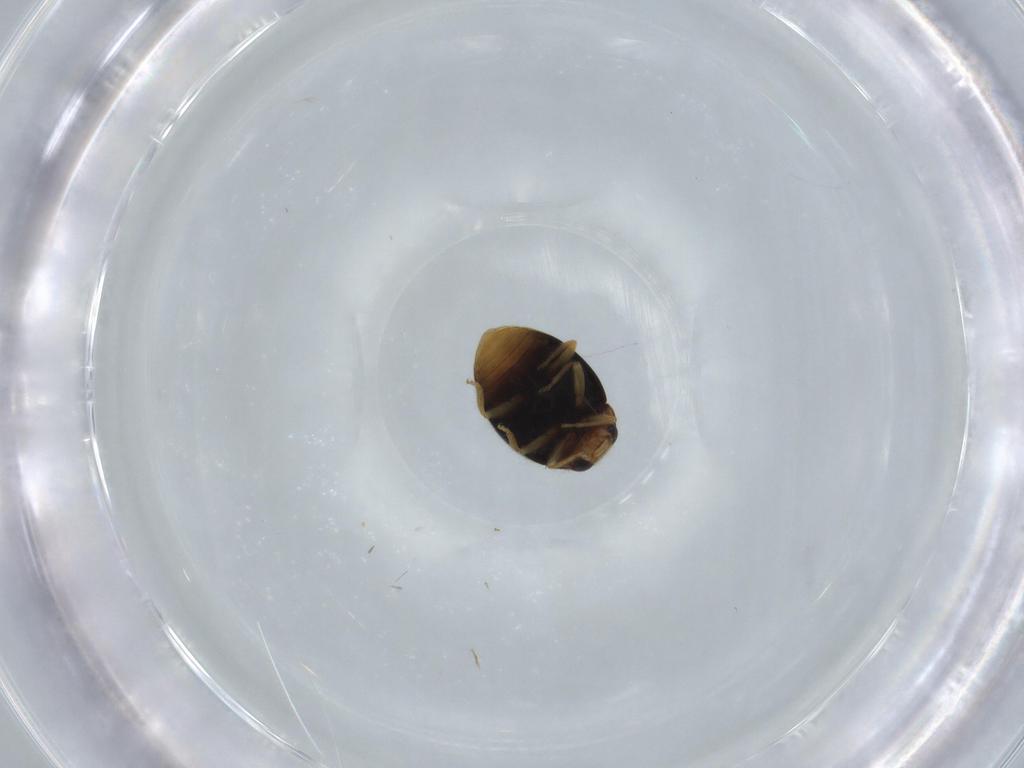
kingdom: Animalia
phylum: Arthropoda
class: Insecta
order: Coleoptera
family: Coccinellidae
